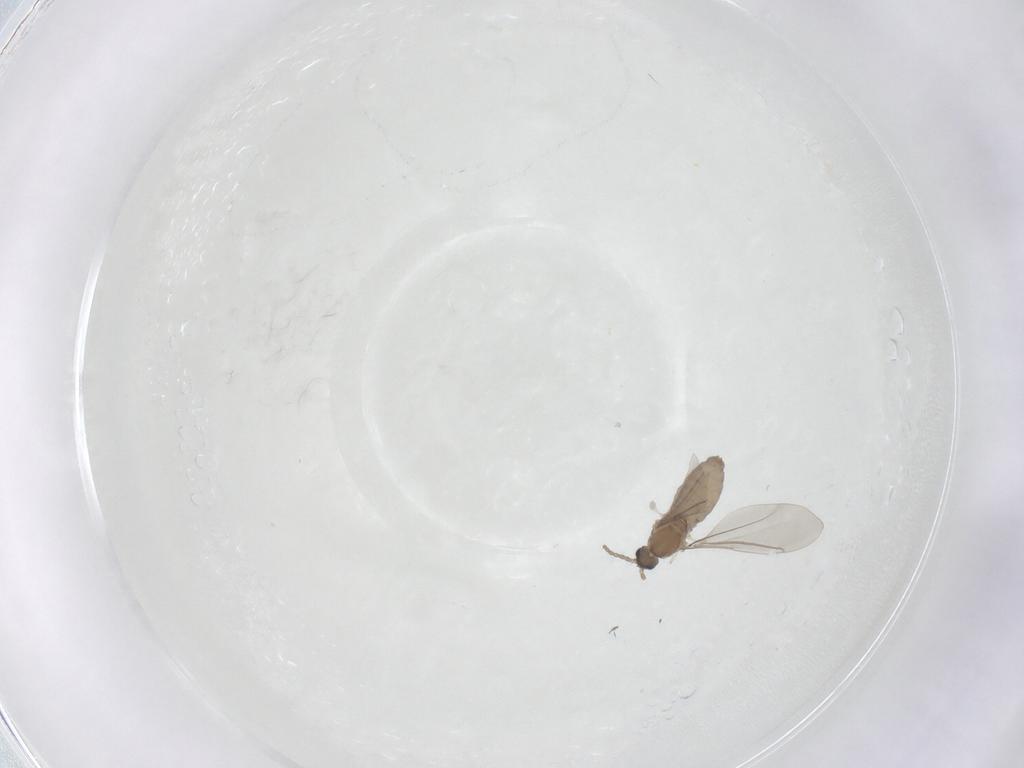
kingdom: Animalia
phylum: Arthropoda
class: Insecta
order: Diptera
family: Cecidomyiidae
